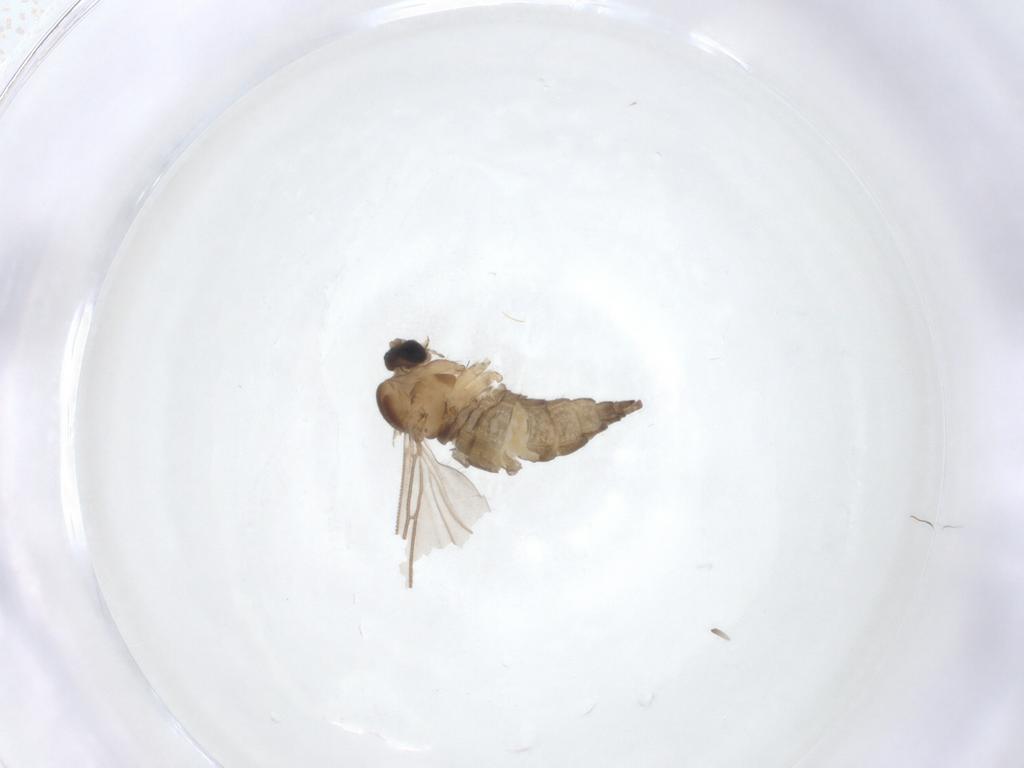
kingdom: Animalia
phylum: Arthropoda
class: Insecta
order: Diptera
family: Sciaridae
